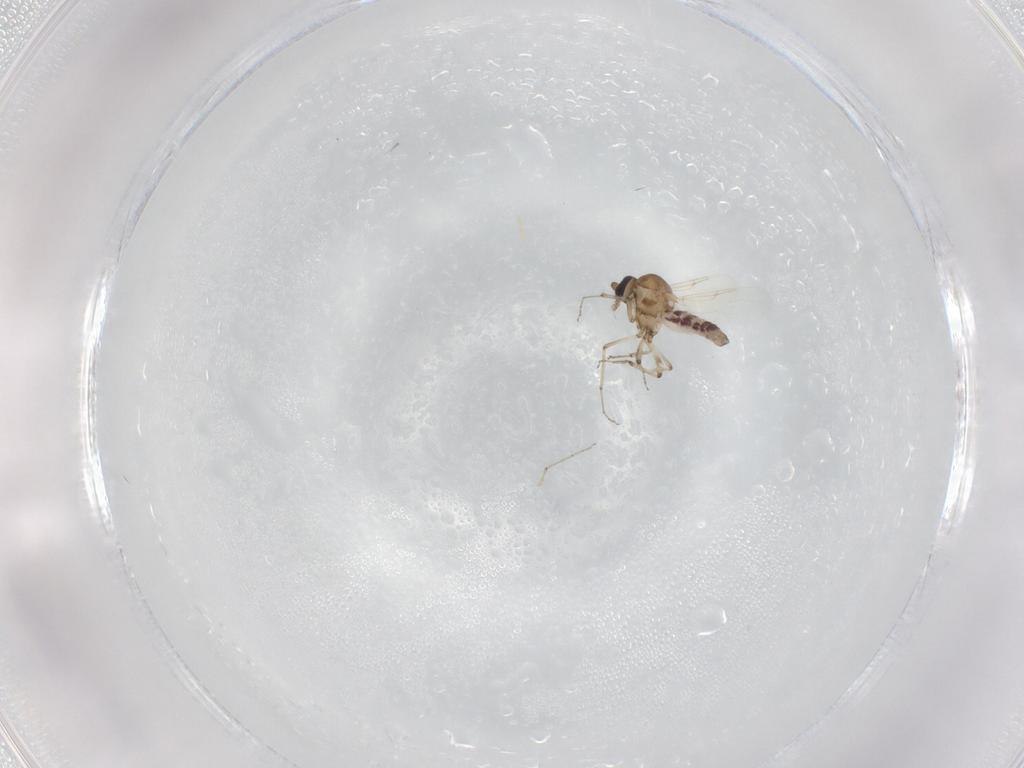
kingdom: Animalia
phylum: Arthropoda
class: Insecta
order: Diptera
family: Ceratopogonidae
